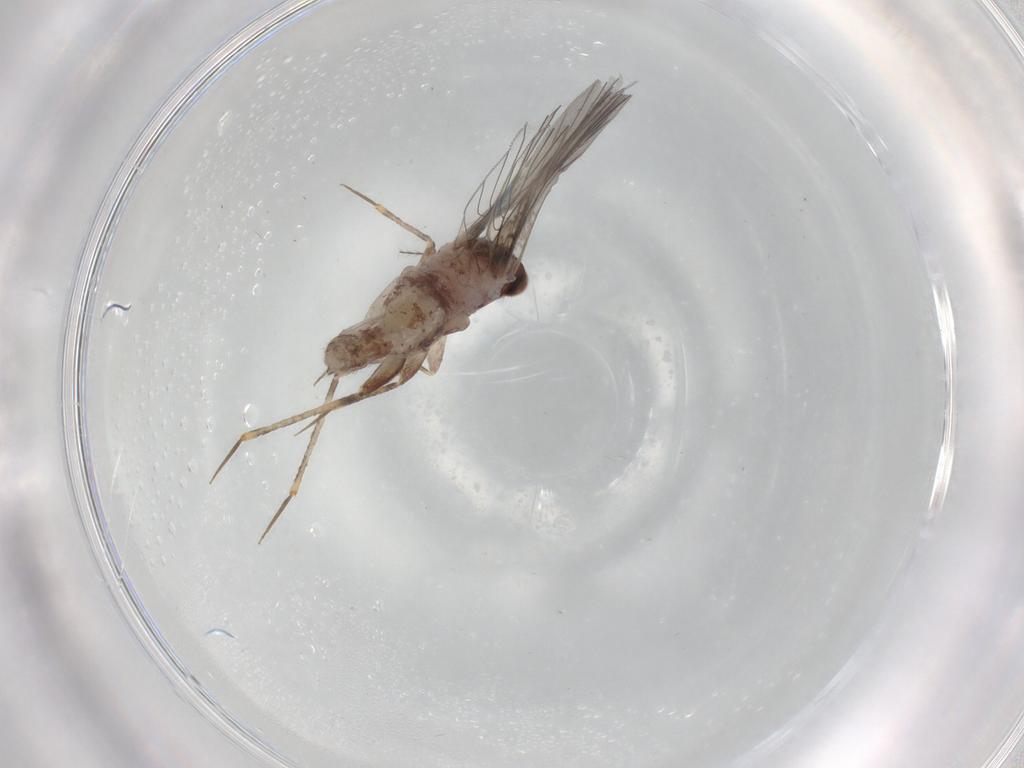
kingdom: Animalia
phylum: Arthropoda
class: Insecta
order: Psocodea
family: Lepidopsocidae
